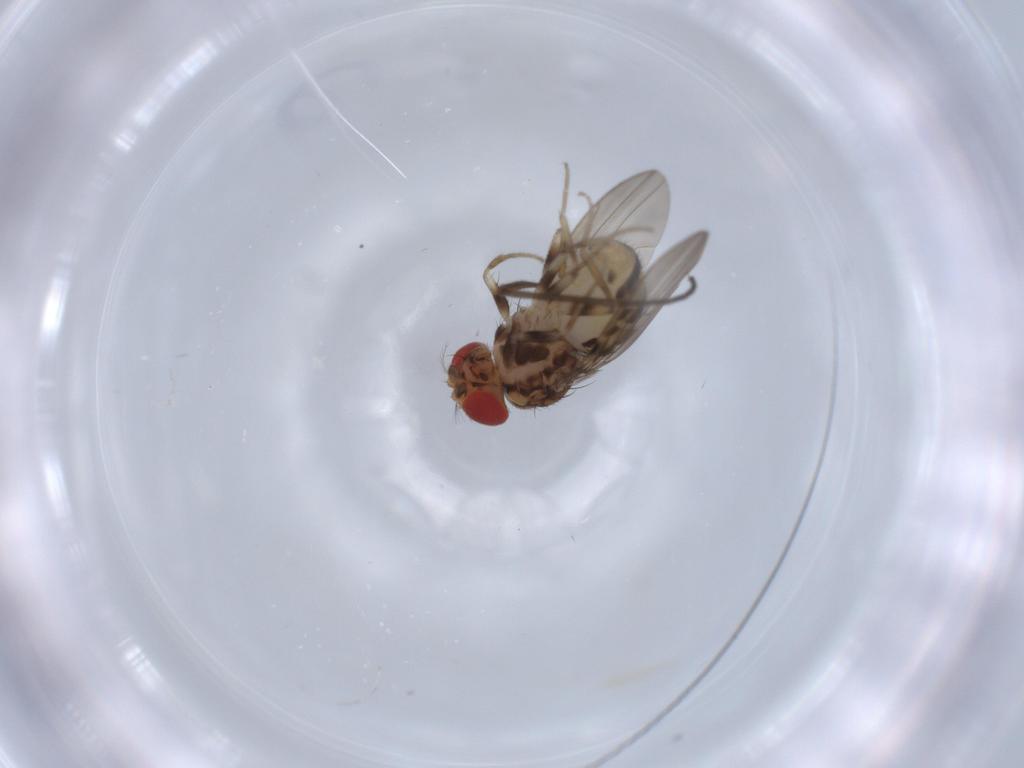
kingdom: Animalia
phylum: Arthropoda
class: Insecta
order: Diptera
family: Drosophilidae
